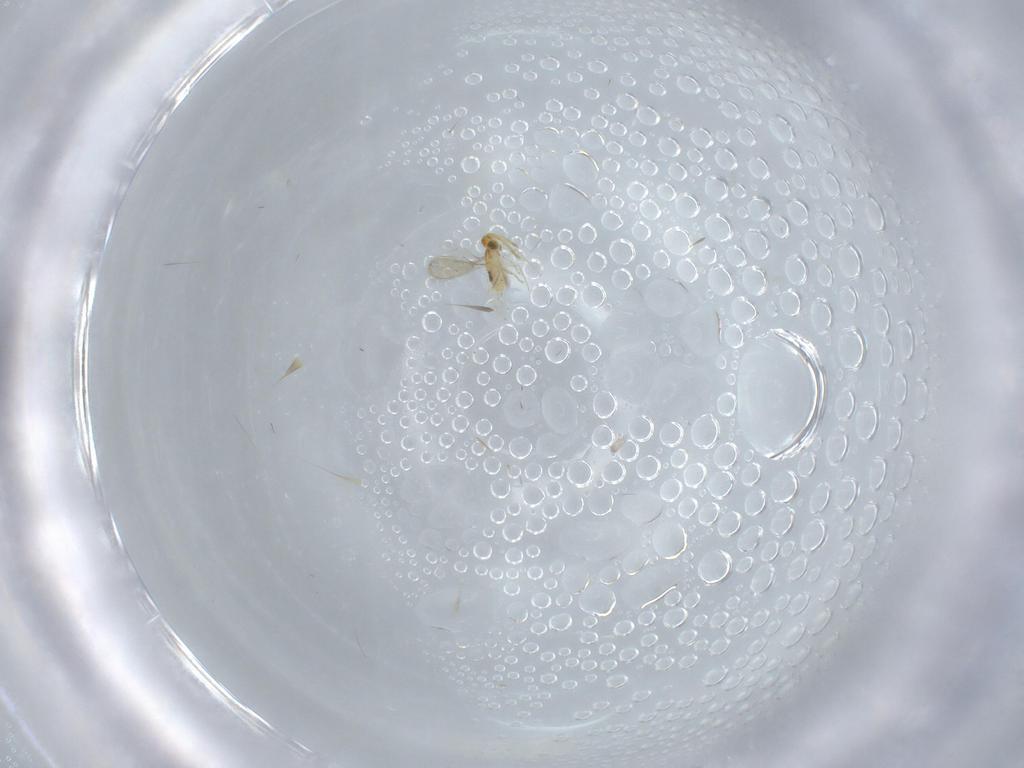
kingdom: Animalia
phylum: Arthropoda
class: Insecta
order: Hymenoptera
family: Aphelinidae
